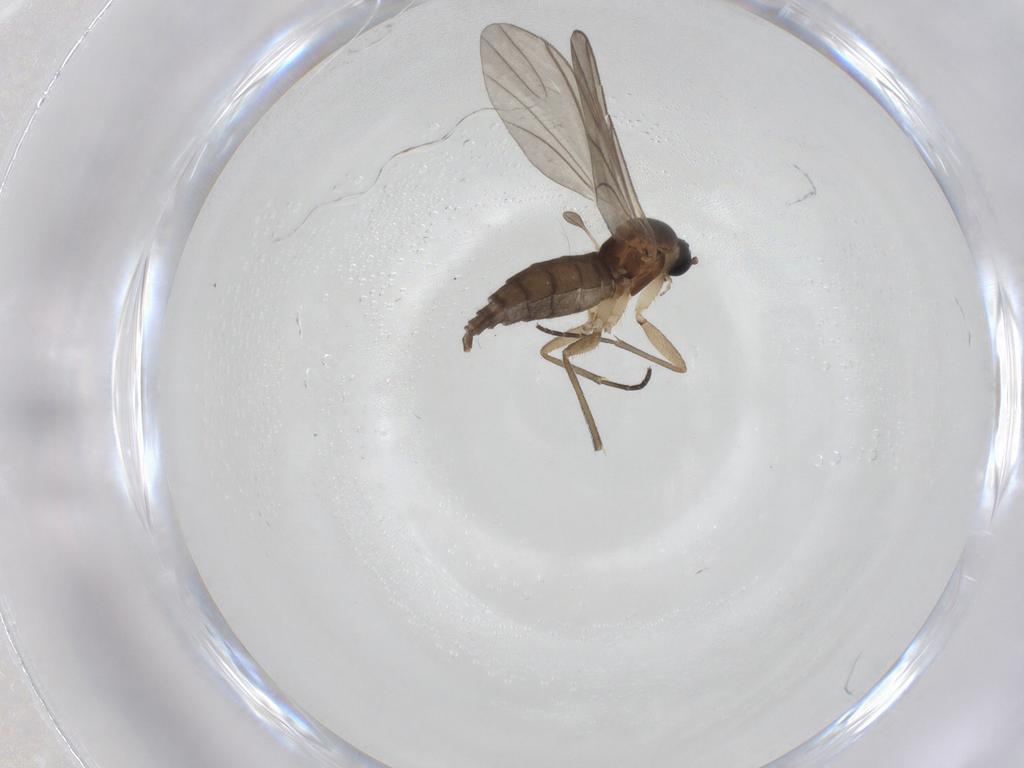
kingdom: Animalia
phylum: Arthropoda
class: Insecta
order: Diptera
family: Sciaridae
